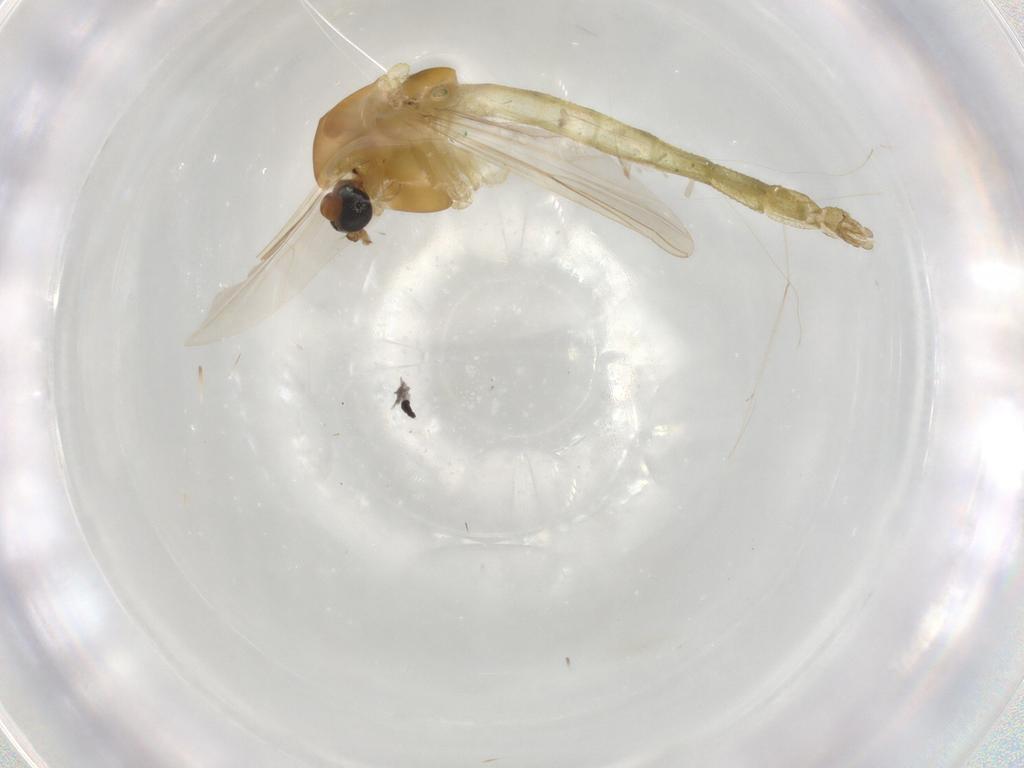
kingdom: Animalia
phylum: Arthropoda
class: Insecta
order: Diptera
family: Chironomidae
